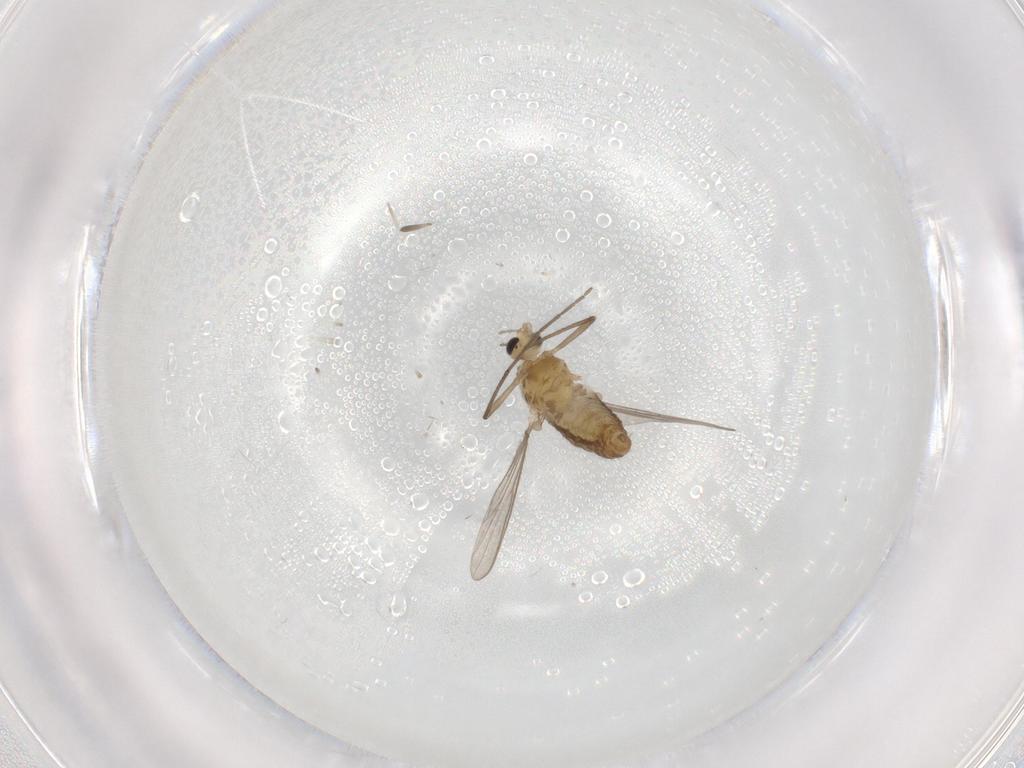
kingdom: Animalia
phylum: Arthropoda
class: Insecta
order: Diptera
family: Chironomidae
